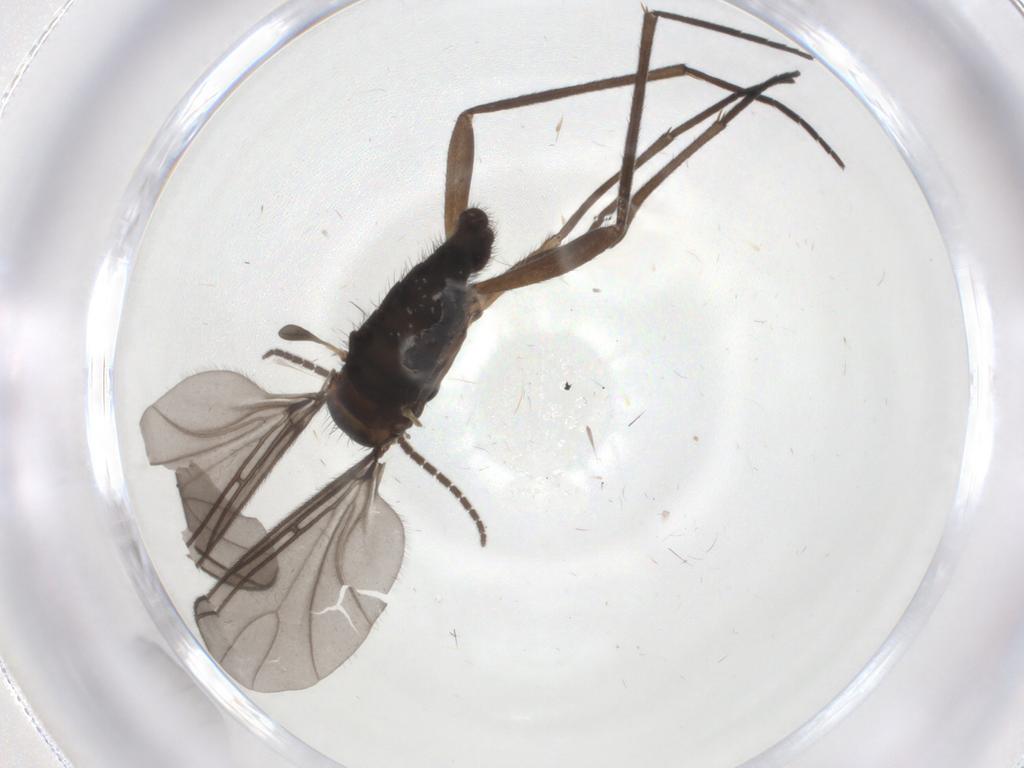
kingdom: Animalia
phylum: Arthropoda
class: Insecta
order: Diptera
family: Sciaridae
